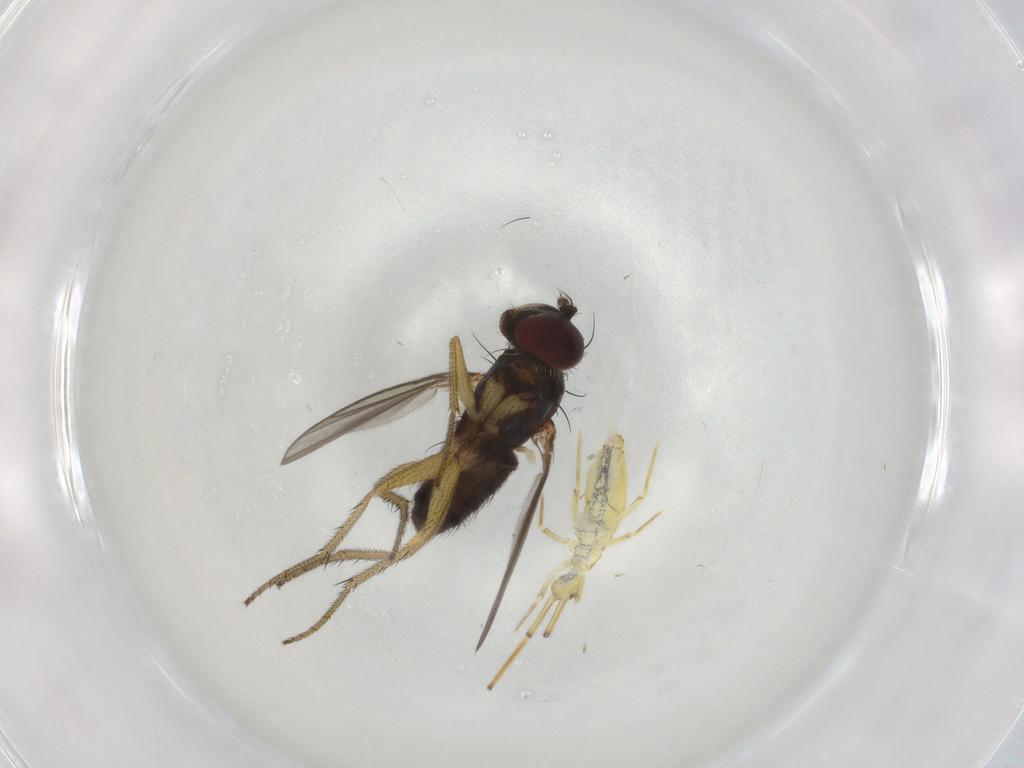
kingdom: Animalia
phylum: Arthropoda
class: Insecta
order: Diptera
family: Dolichopodidae
